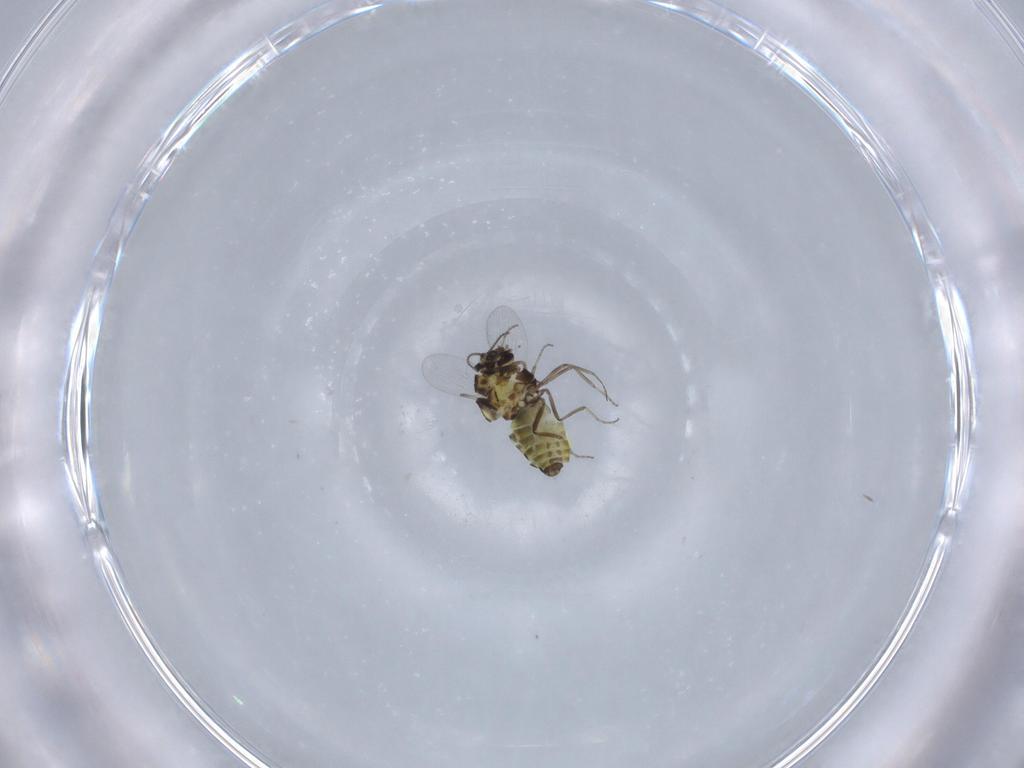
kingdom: Animalia
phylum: Arthropoda
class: Insecta
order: Diptera
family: Ceratopogonidae
